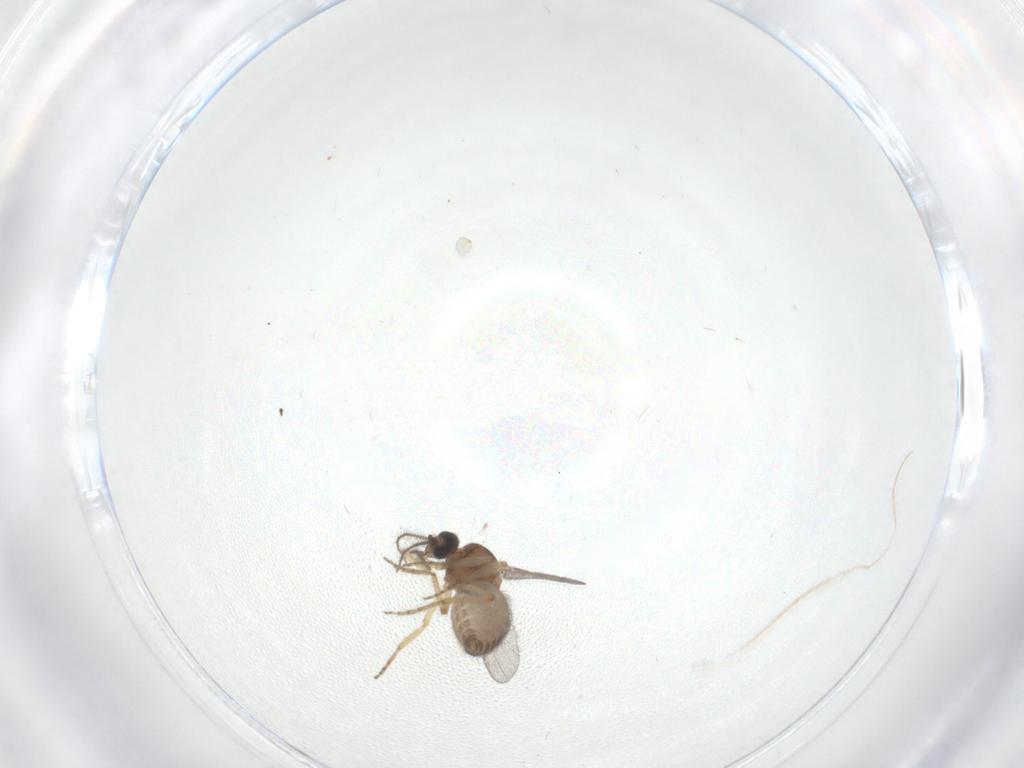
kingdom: Animalia
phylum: Arthropoda
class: Insecta
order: Diptera
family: Ceratopogonidae
